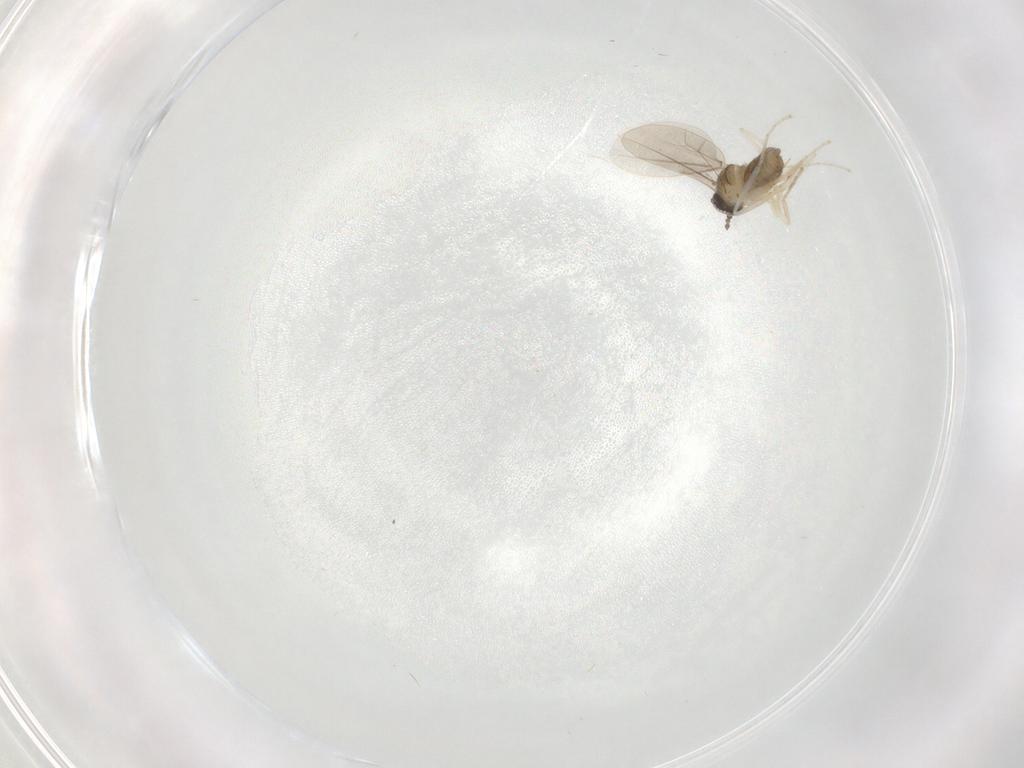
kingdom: Animalia
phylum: Arthropoda
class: Insecta
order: Diptera
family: Cecidomyiidae
